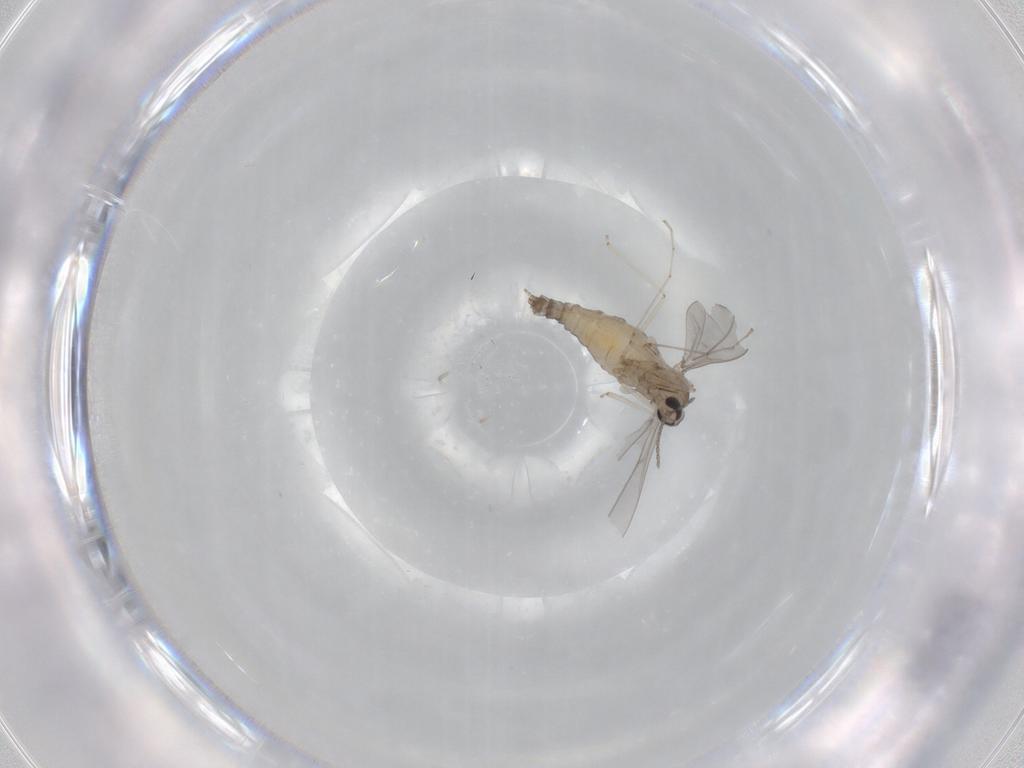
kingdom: Animalia
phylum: Arthropoda
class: Insecta
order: Diptera
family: Cecidomyiidae
